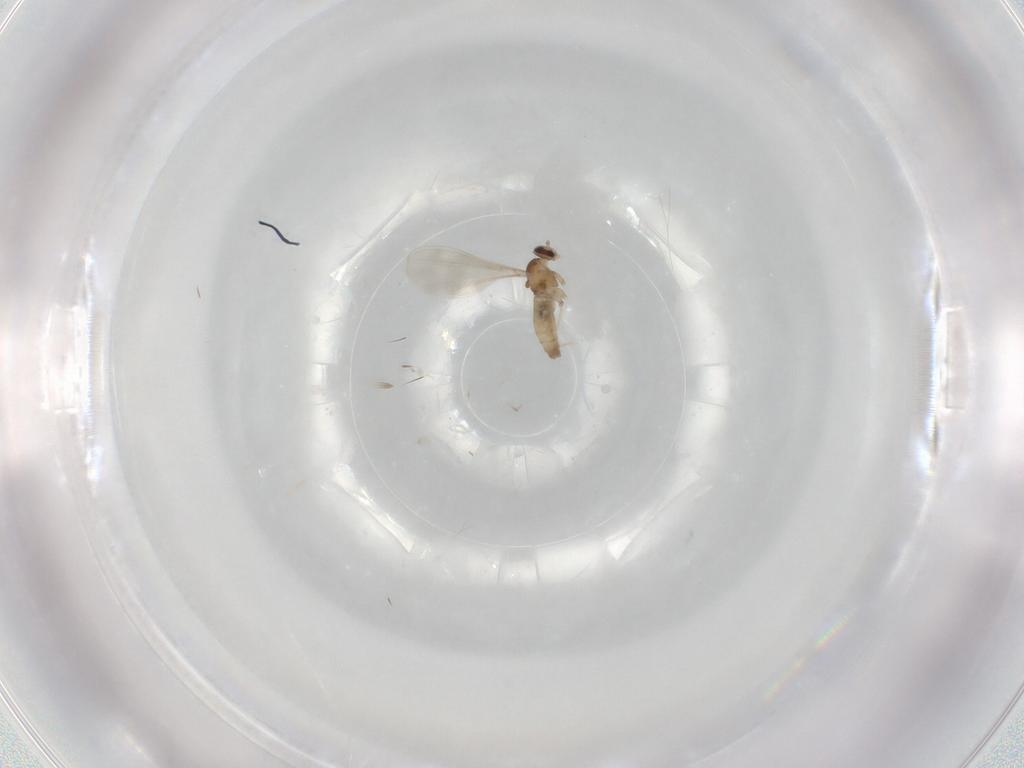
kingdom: Animalia
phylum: Arthropoda
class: Insecta
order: Diptera
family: Cecidomyiidae
